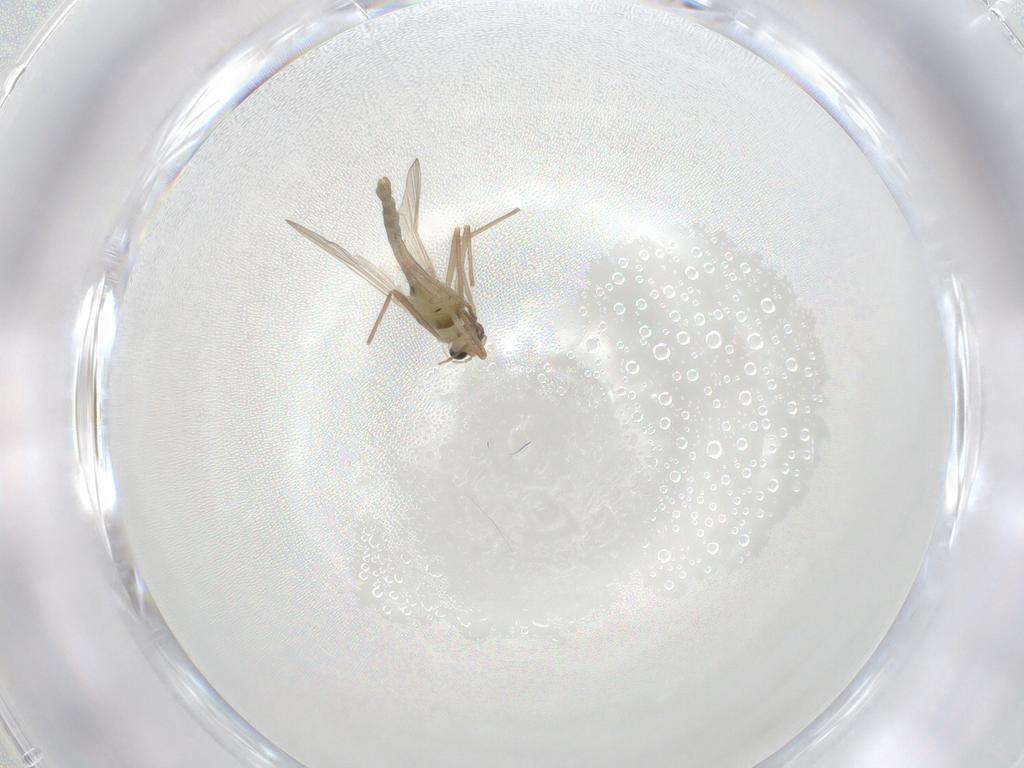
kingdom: Animalia
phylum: Arthropoda
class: Insecta
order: Diptera
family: Chironomidae
